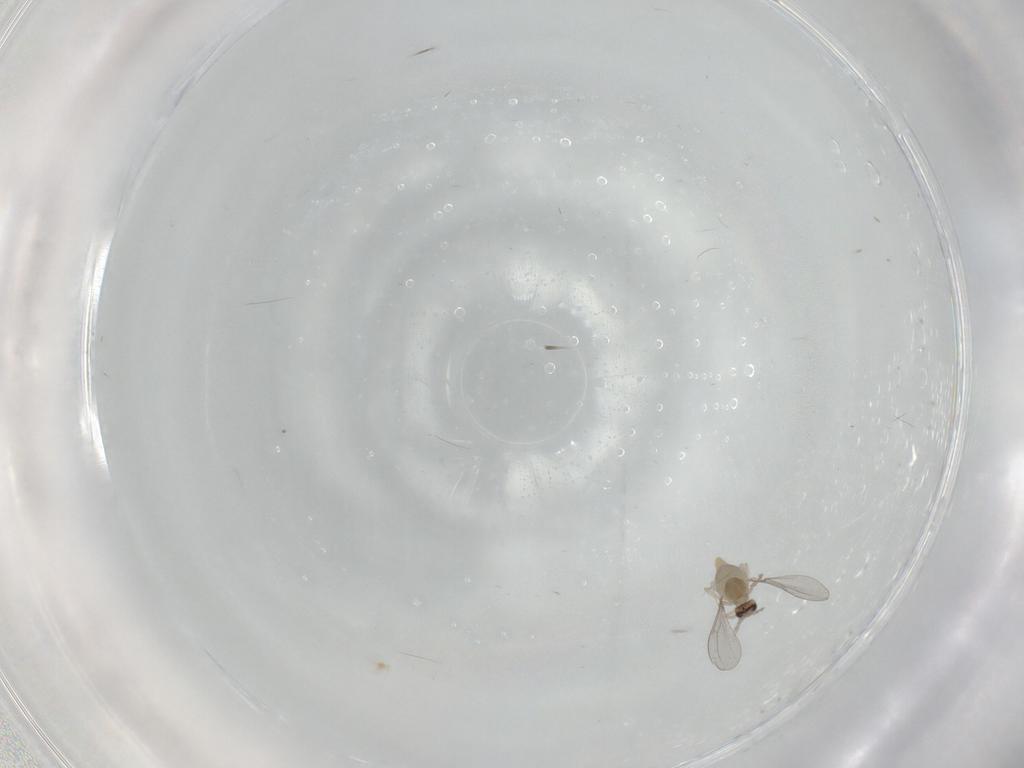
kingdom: Animalia
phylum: Arthropoda
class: Insecta
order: Diptera
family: Cecidomyiidae
